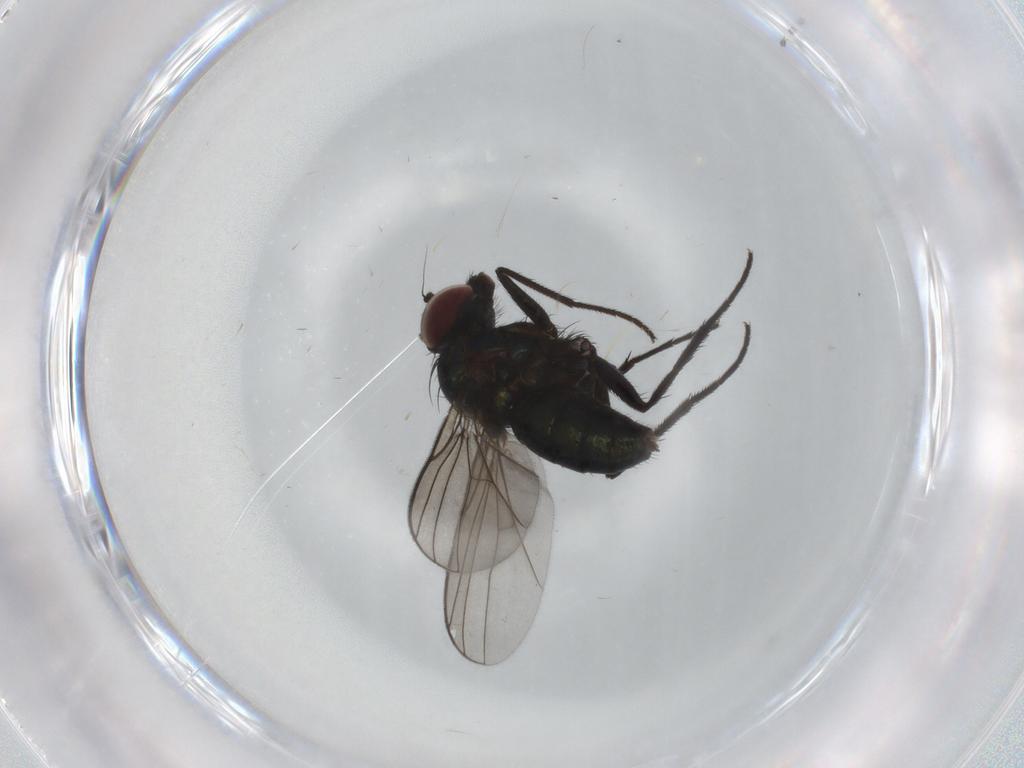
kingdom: Animalia
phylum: Arthropoda
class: Insecta
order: Diptera
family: Dolichopodidae
